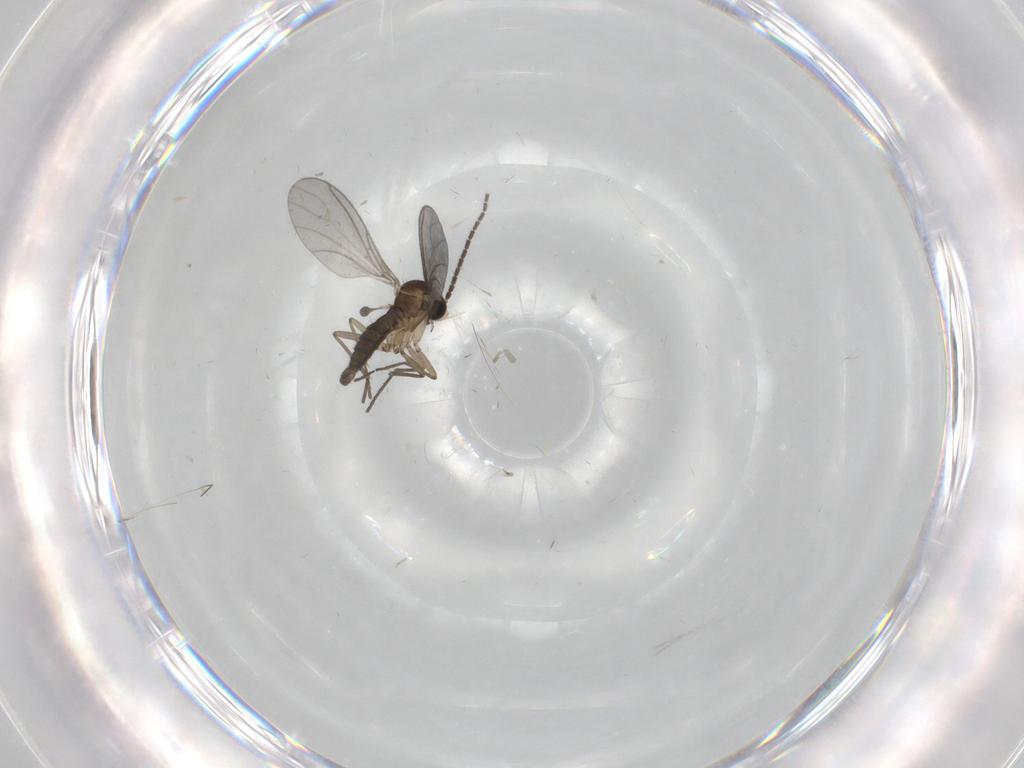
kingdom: Animalia
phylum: Arthropoda
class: Insecta
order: Diptera
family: Sciaridae
